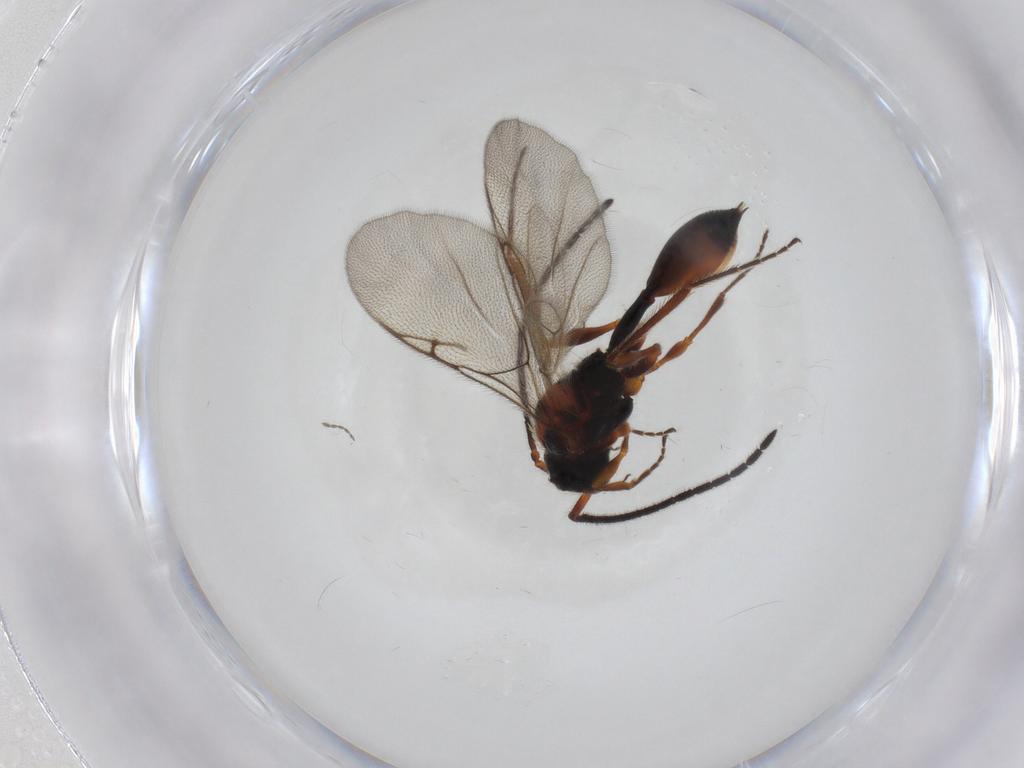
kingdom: Animalia
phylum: Arthropoda
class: Insecta
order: Hymenoptera
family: Diapriidae
